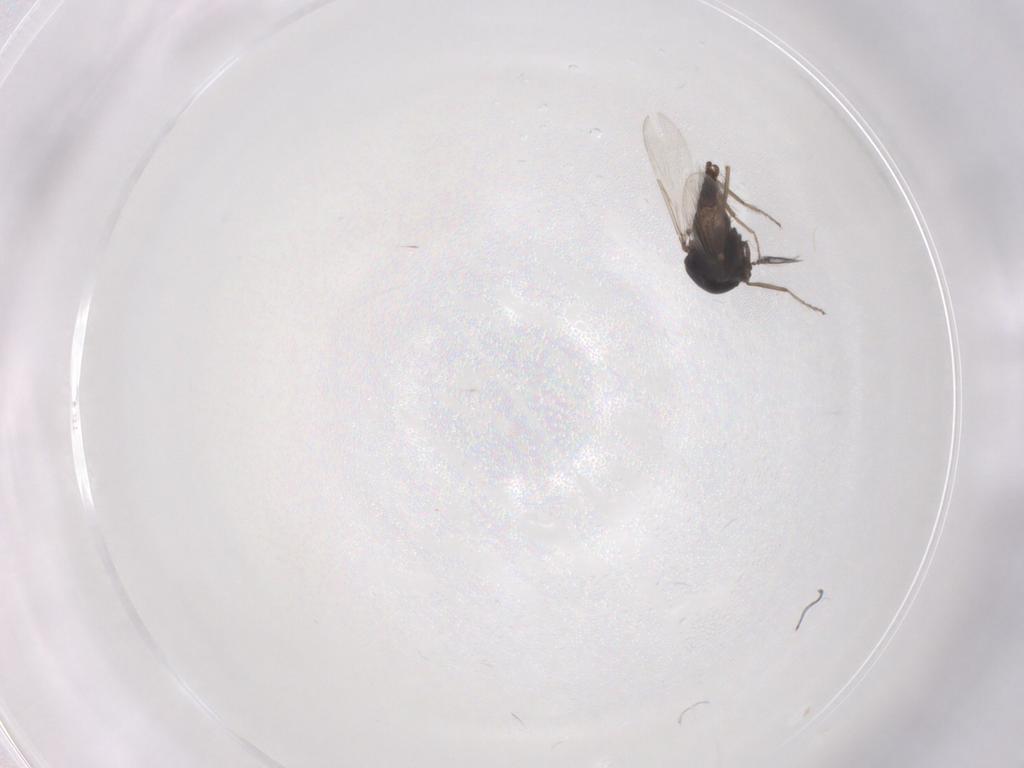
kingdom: Animalia
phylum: Arthropoda
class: Insecta
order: Diptera
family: Ceratopogonidae
